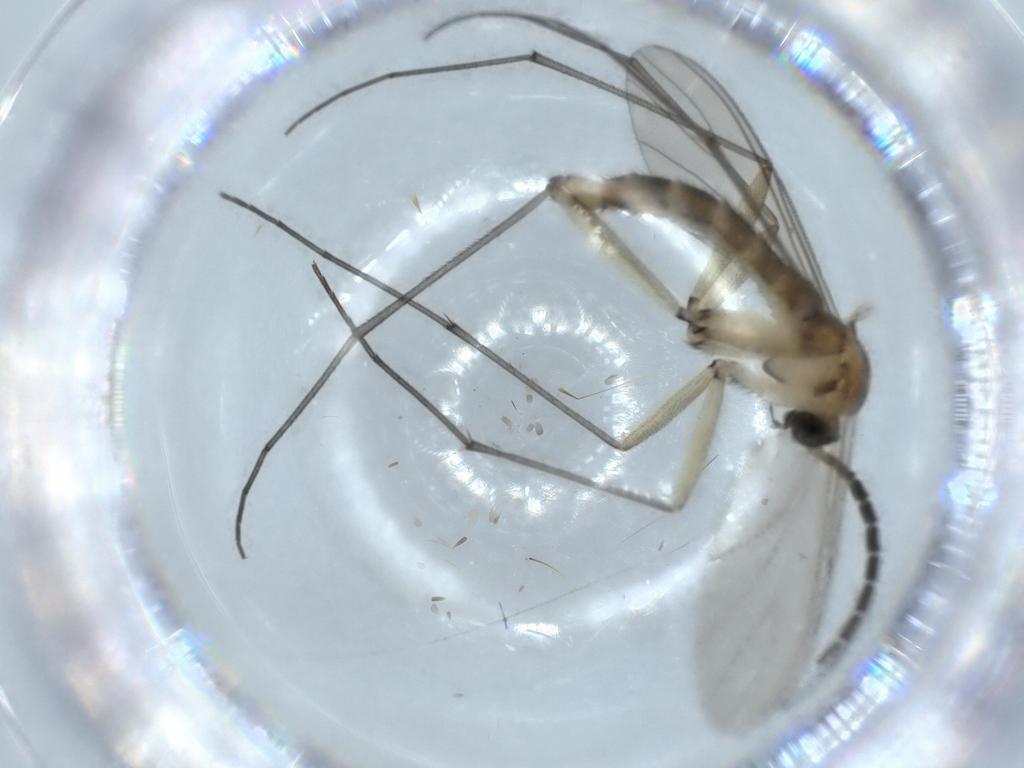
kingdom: Animalia
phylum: Arthropoda
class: Insecta
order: Diptera
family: Sciaridae
